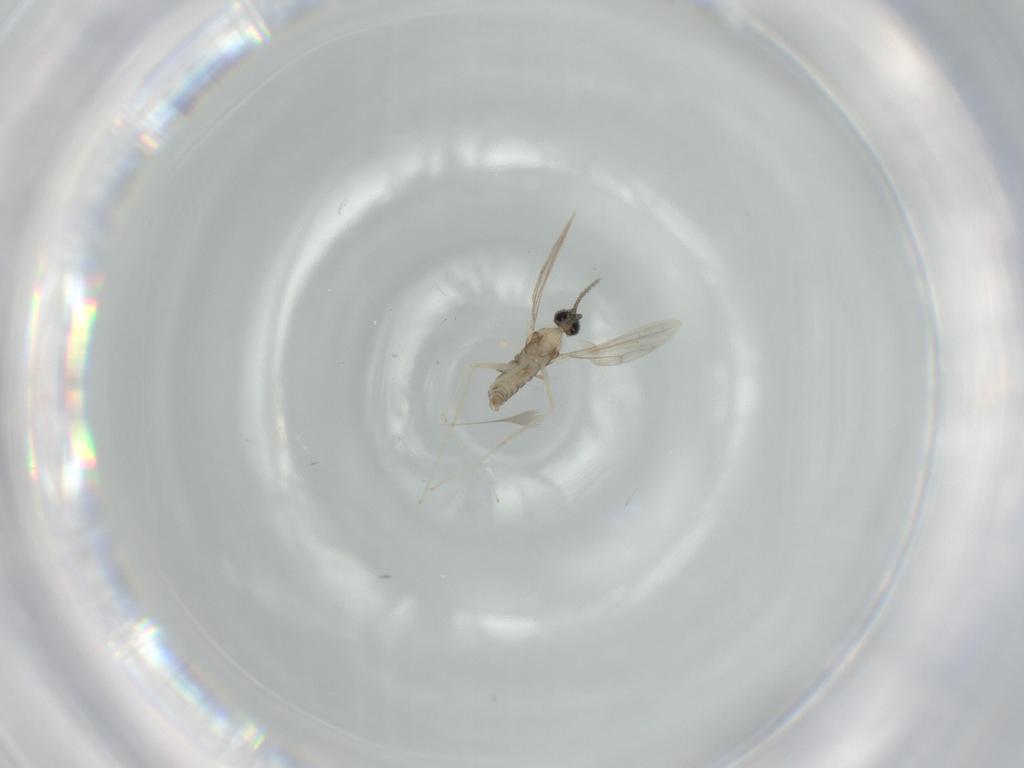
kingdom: Animalia
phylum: Arthropoda
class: Insecta
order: Diptera
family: Cecidomyiidae
